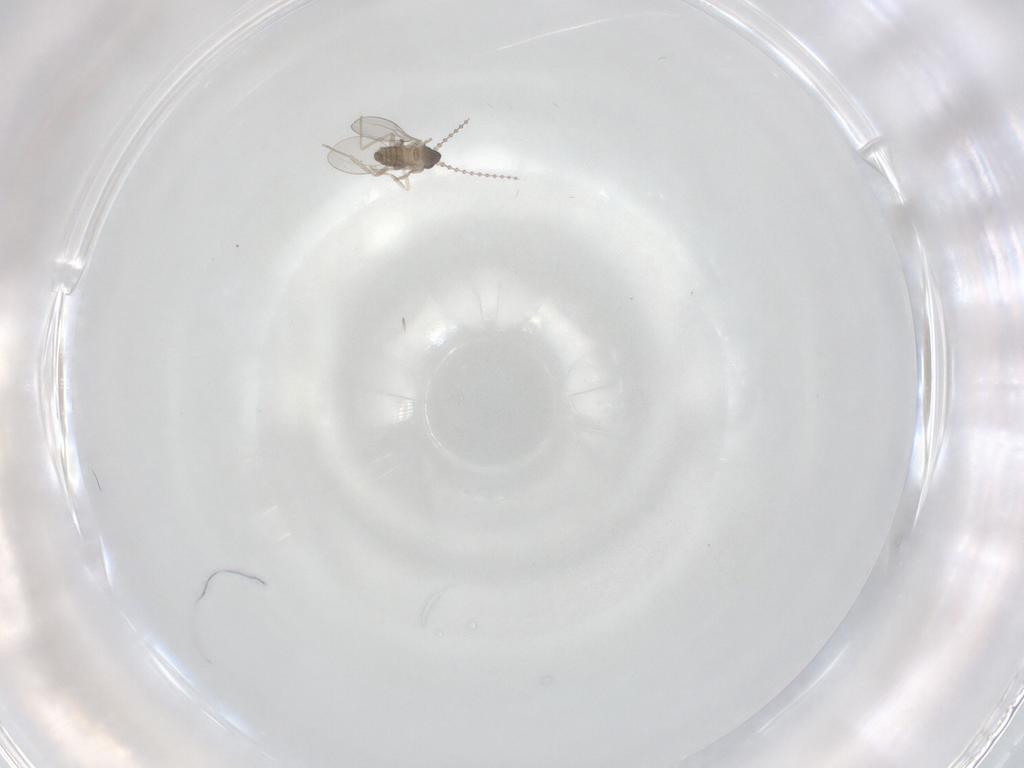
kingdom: Animalia
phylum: Arthropoda
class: Insecta
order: Diptera
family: Cecidomyiidae
